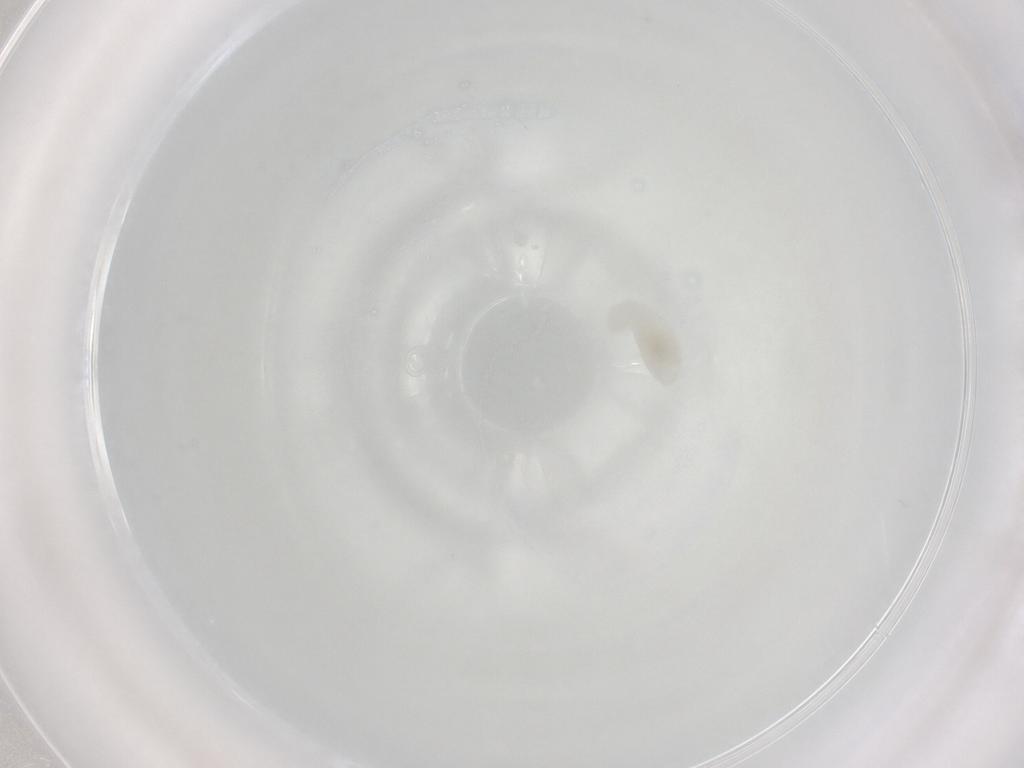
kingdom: Animalia
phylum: Arthropoda
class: Insecta
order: Hymenoptera
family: Formicidae
